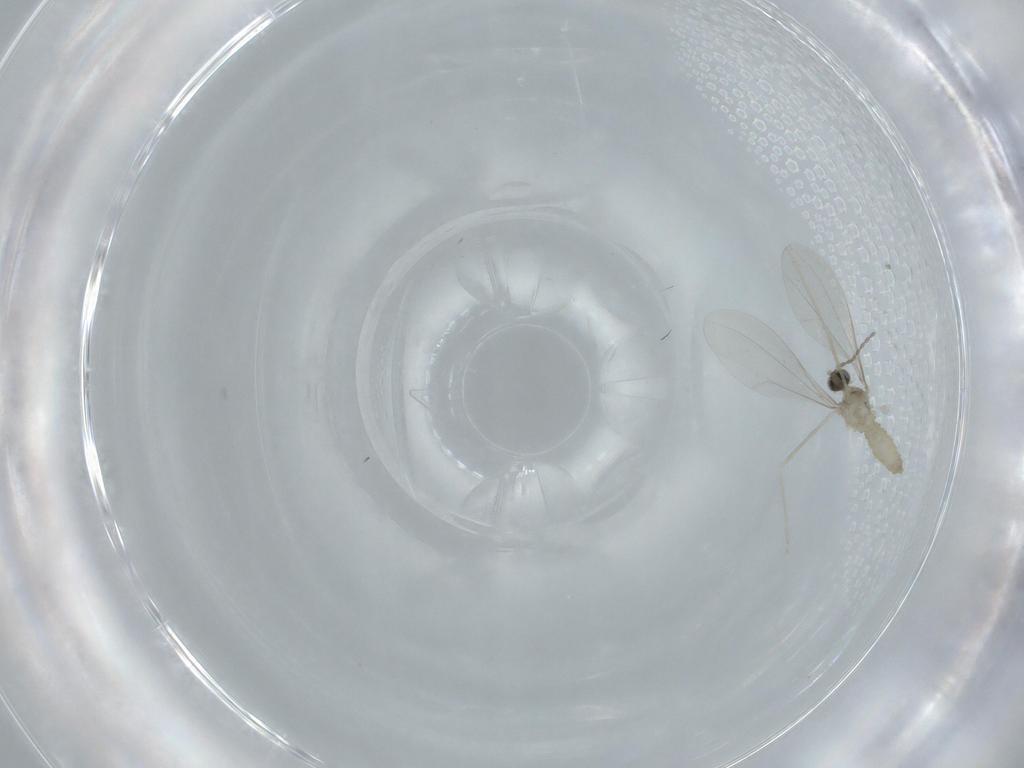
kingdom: Animalia
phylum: Arthropoda
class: Insecta
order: Diptera
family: Cecidomyiidae
